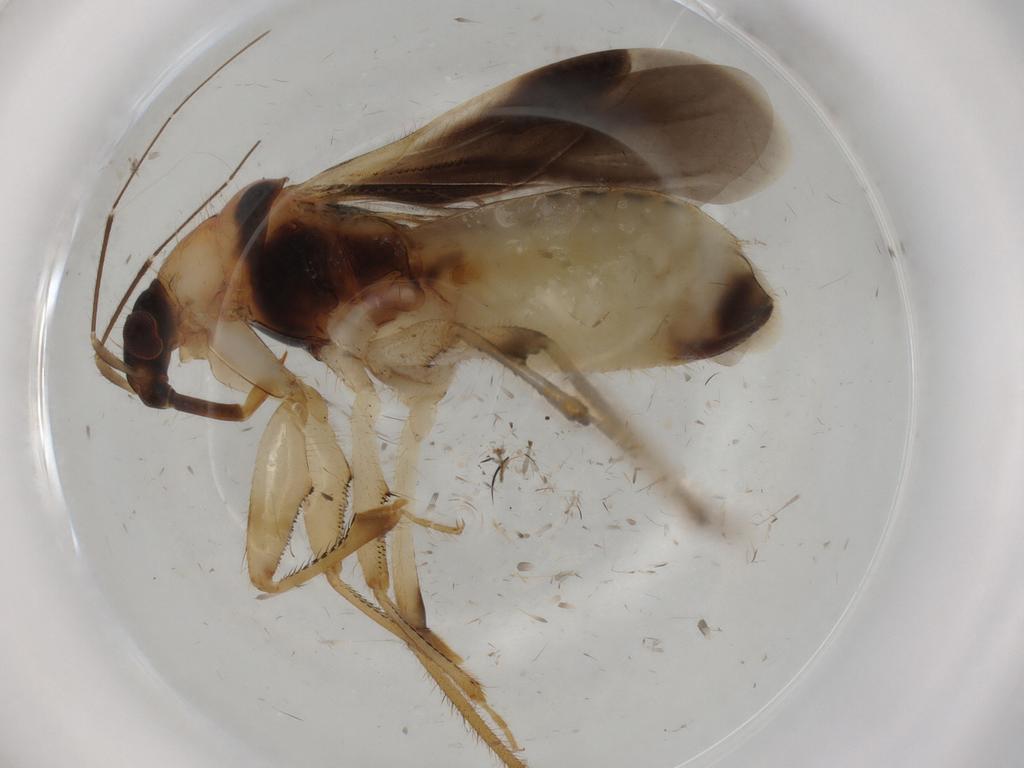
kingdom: Animalia
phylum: Arthropoda
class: Insecta
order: Hemiptera
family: Nabidae
